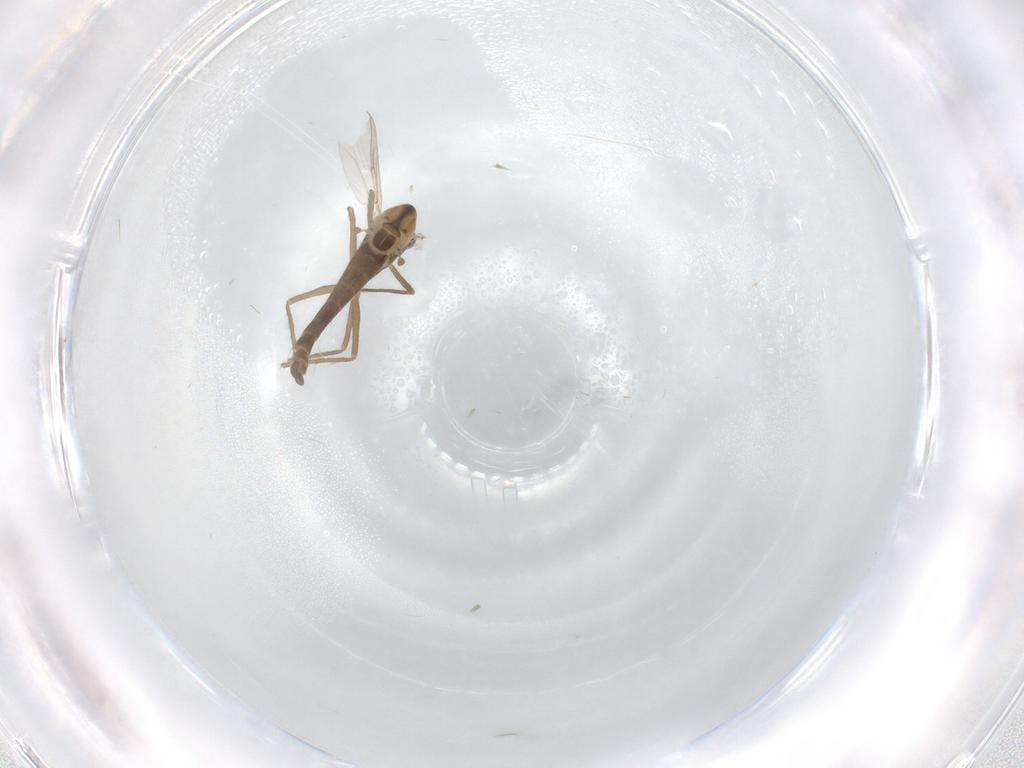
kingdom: Animalia
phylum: Arthropoda
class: Insecta
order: Diptera
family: Chironomidae
